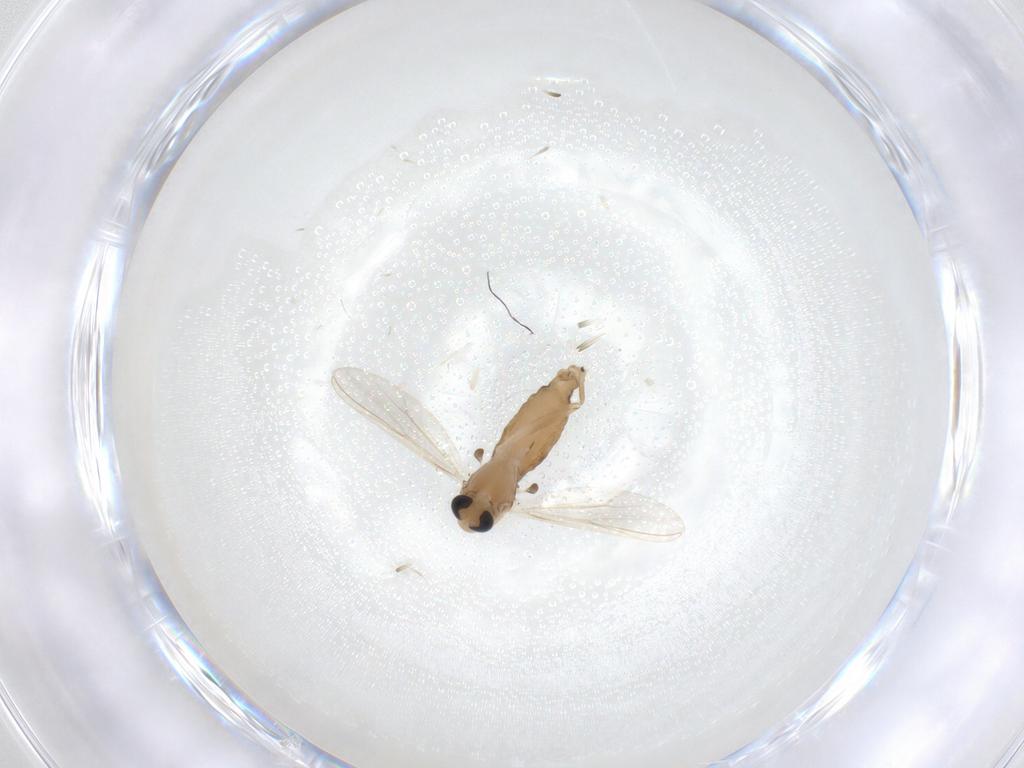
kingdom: Animalia
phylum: Arthropoda
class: Insecta
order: Diptera
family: Chironomidae
